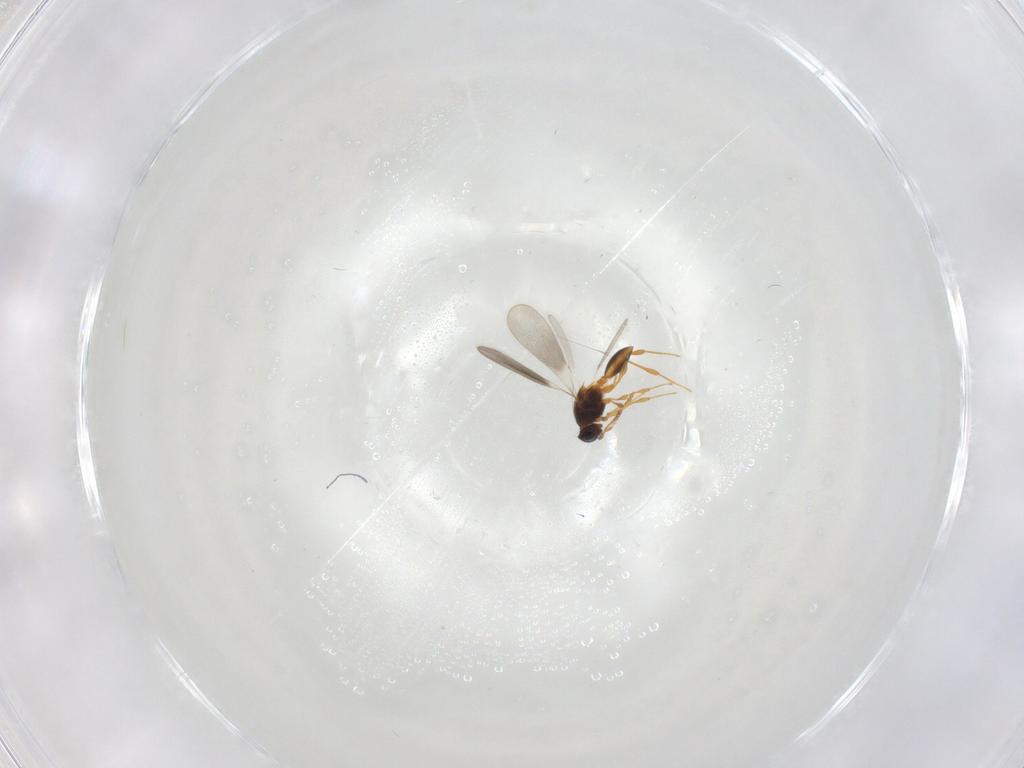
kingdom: Animalia
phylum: Arthropoda
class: Insecta
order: Hymenoptera
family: Platygastridae
